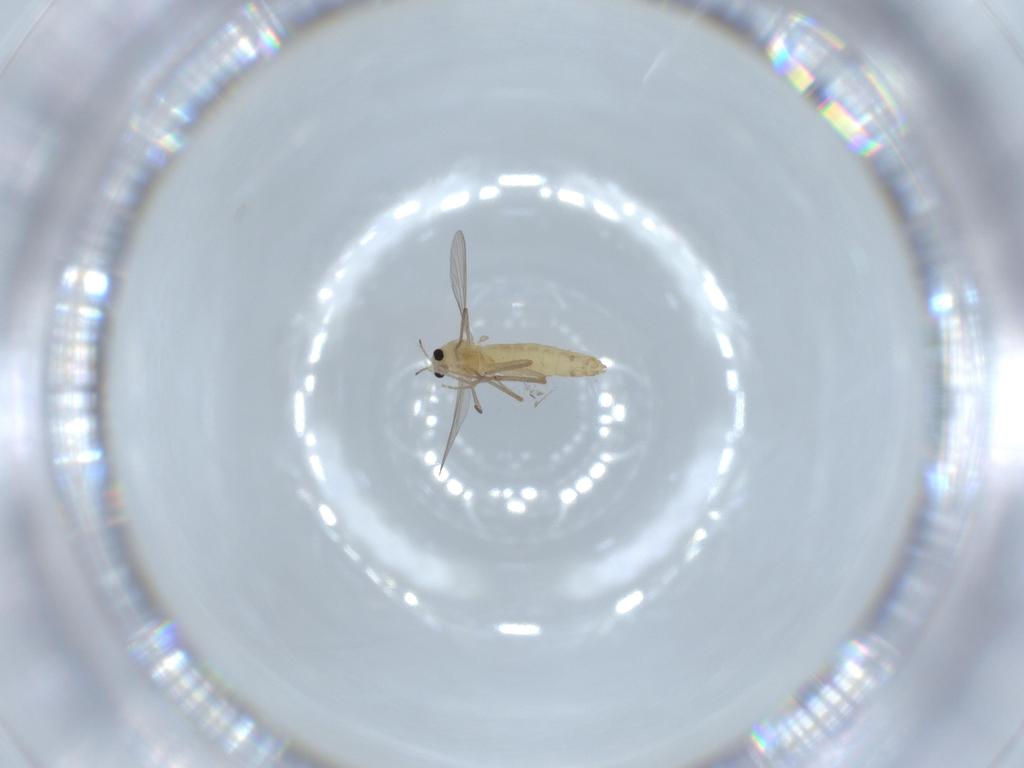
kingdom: Animalia
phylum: Arthropoda
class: Insecta
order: Diptera
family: Chironomidae
